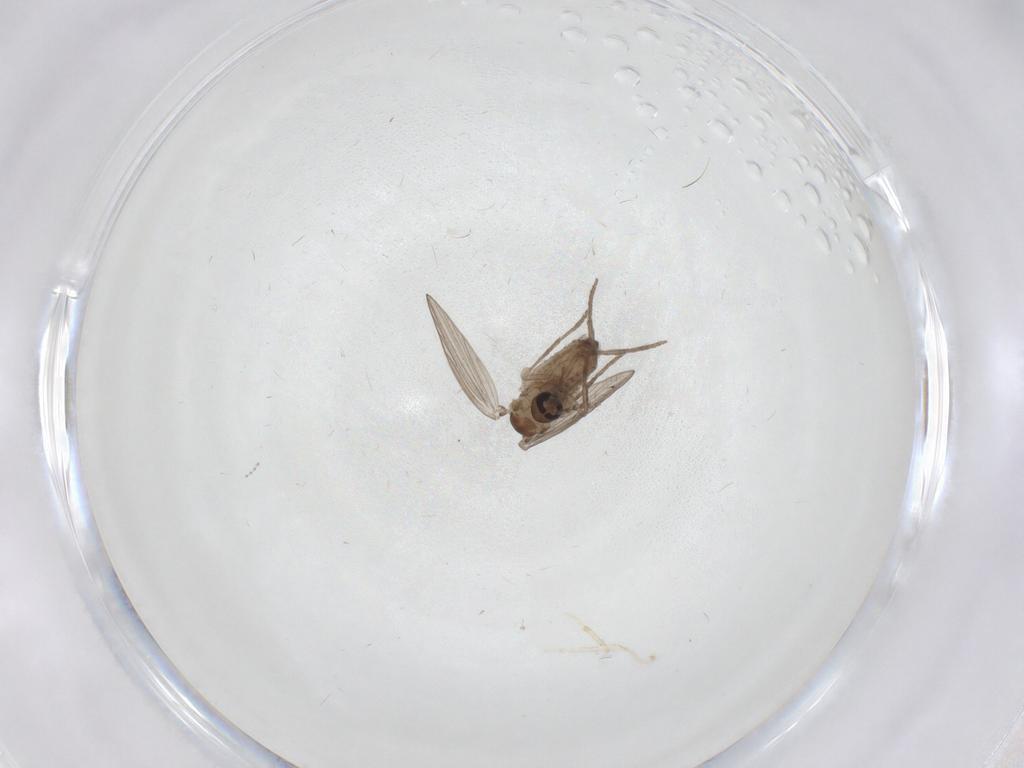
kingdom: Animalia
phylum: Arthropoda
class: Insecta
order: Diptera
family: Psychodidae
